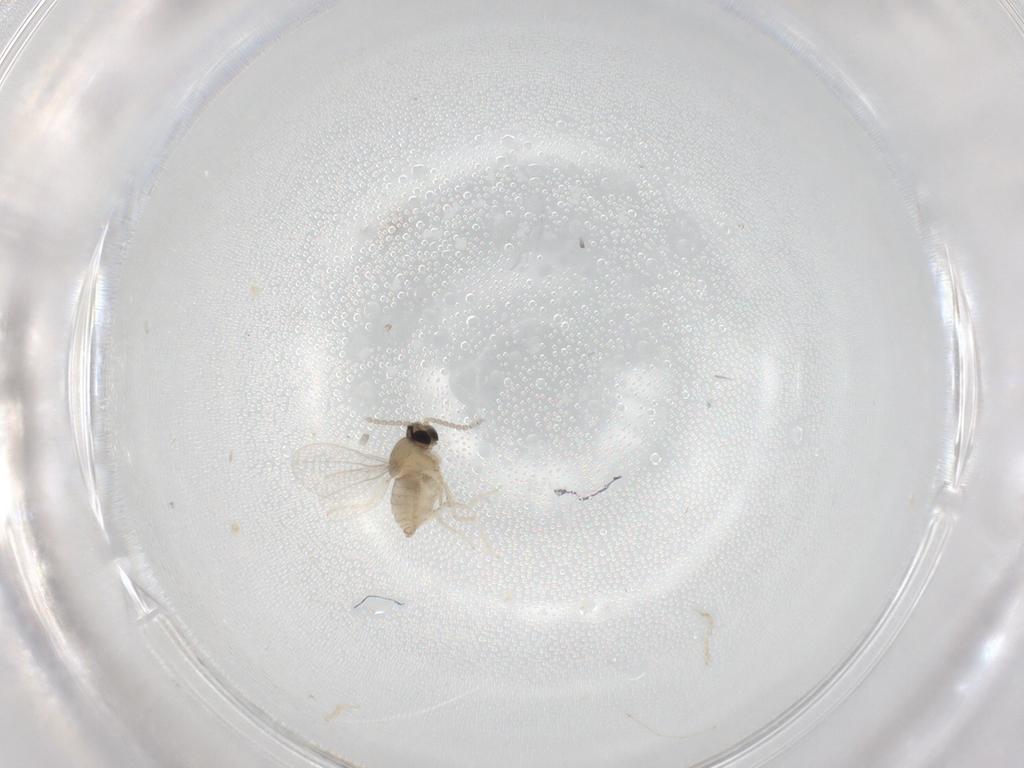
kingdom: Animalia
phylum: Arthropoda
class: Insecta
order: Diptera
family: Cecidomyiidae
